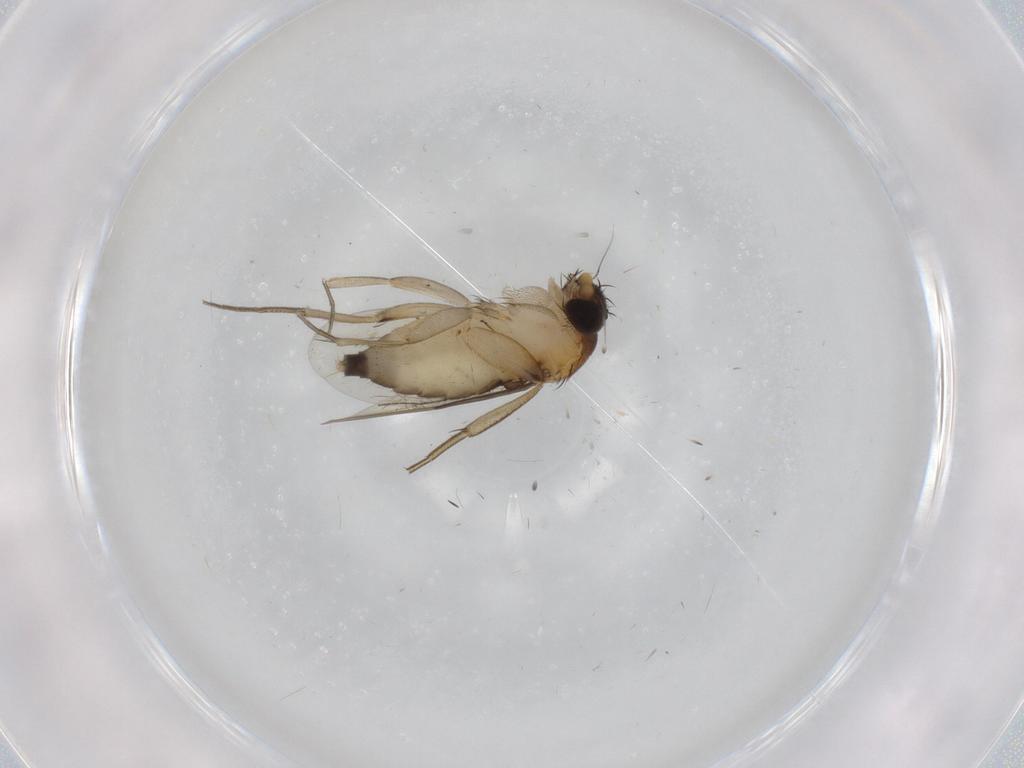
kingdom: Animalia
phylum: Arthropoda
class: Insecta
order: Diptera
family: Phoridae
